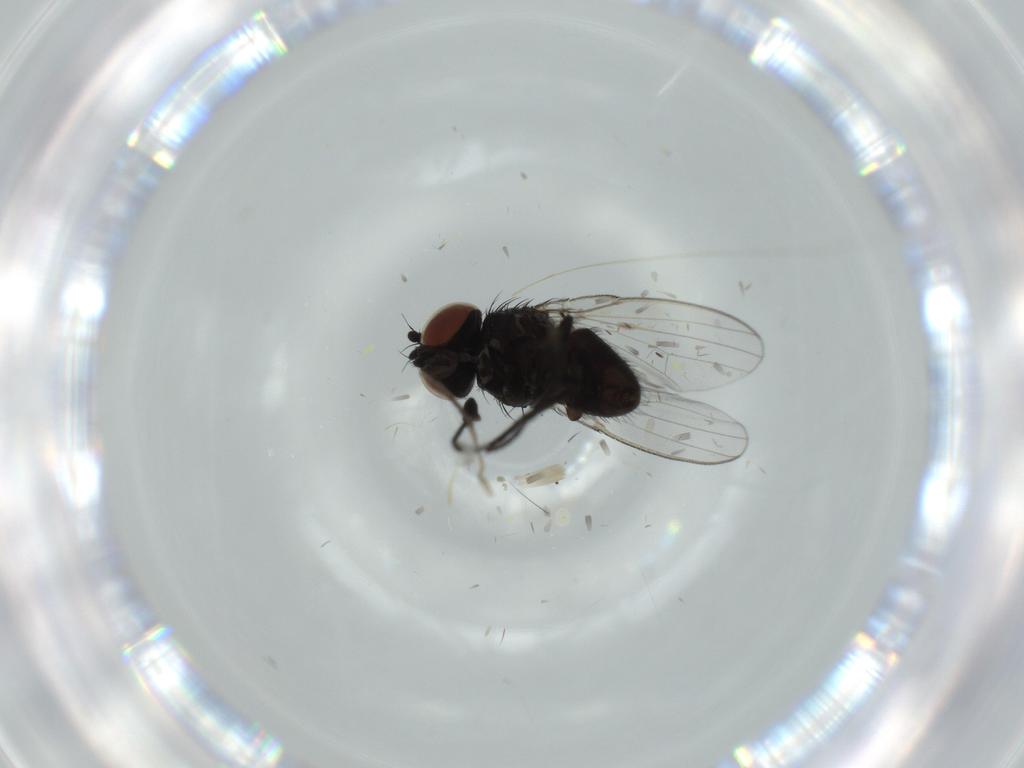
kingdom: Animalia
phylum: Arthropoda
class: Insecta
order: Diptera
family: Milichiidae
